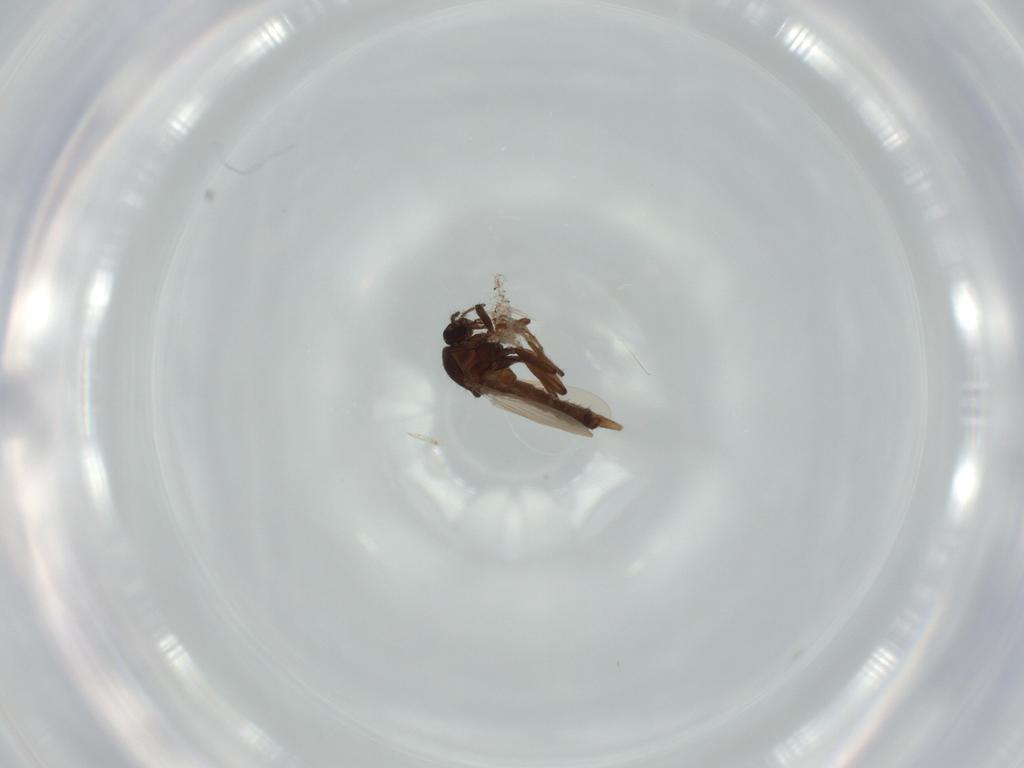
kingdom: Animalia
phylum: Arthropoda
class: Insecta
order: Diptera
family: Ceratopogonidae
